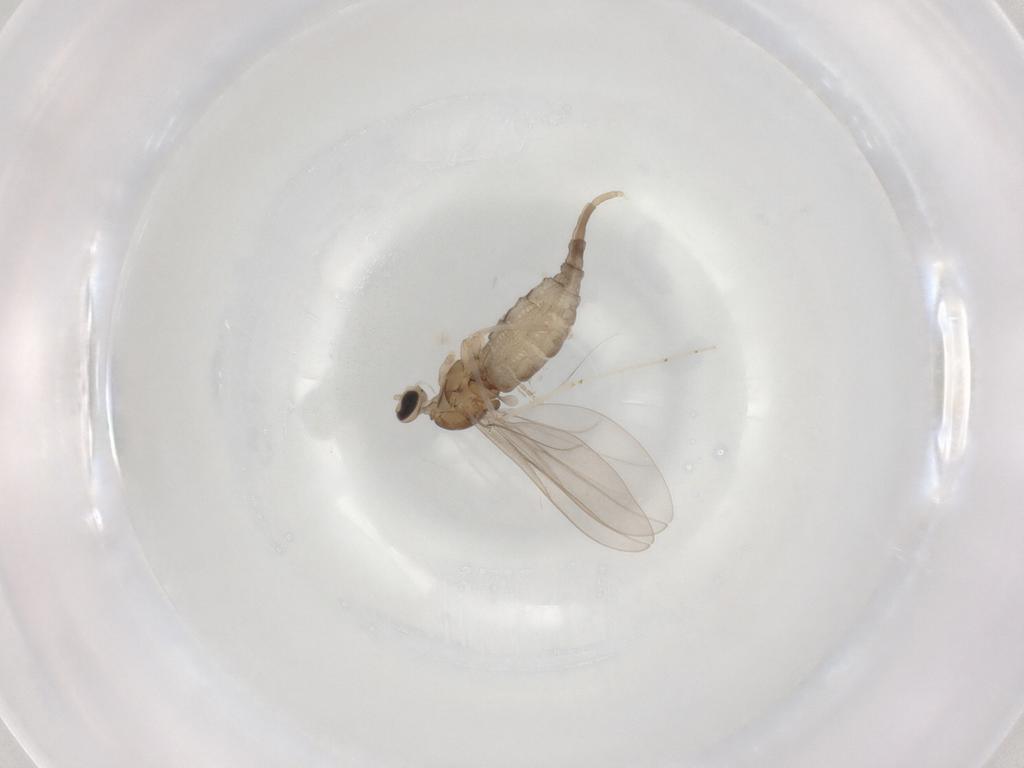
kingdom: Animalia
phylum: Arthropoda
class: Insecta
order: Diptera
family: Cecidomyiidae
